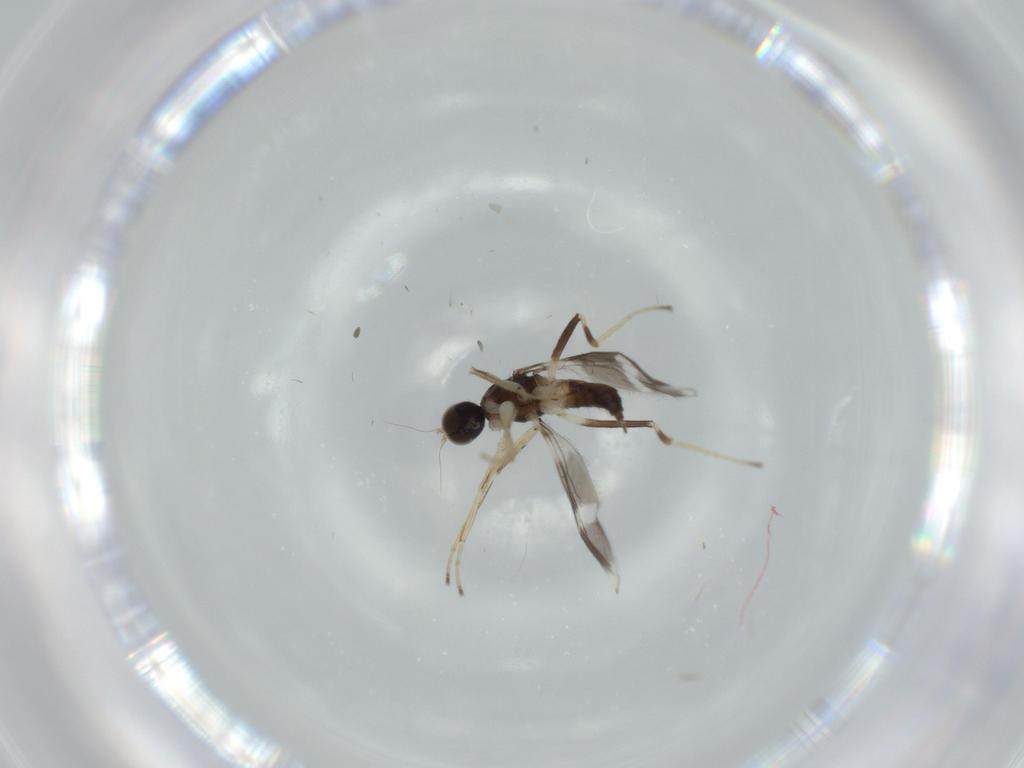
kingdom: Animalia
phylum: Arthropoda
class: Insecta
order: Diptera
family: Hybotidae
